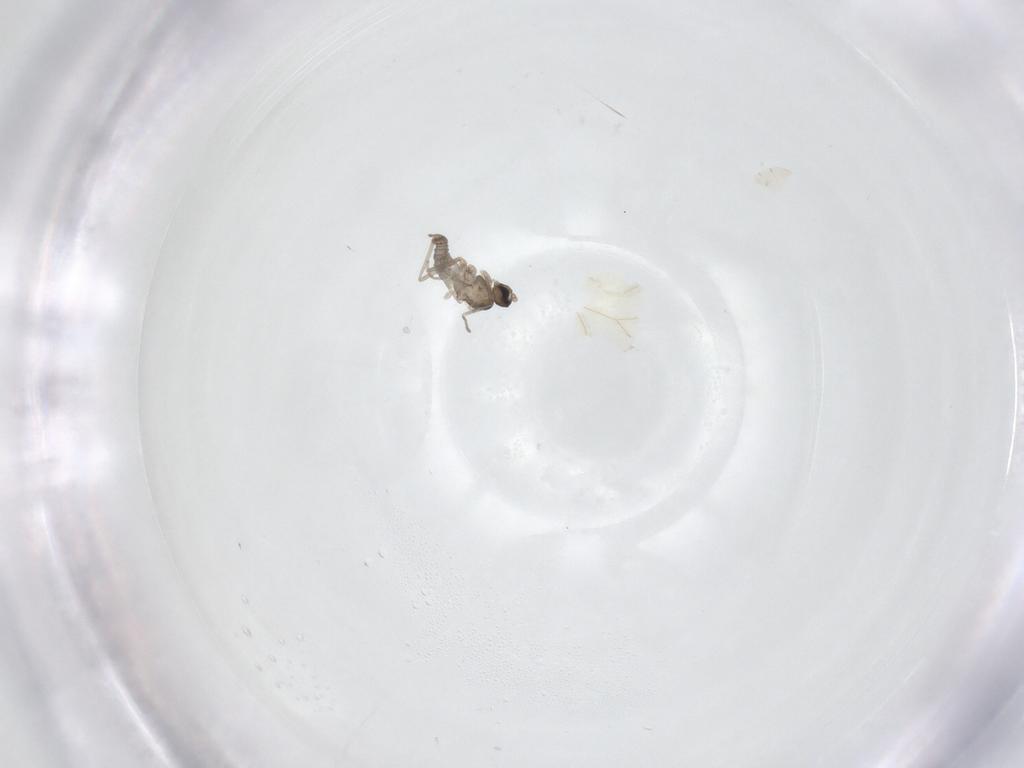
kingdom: Animalia
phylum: Arthropoda
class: Insecta
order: Diptera
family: Cecidomyiidae
